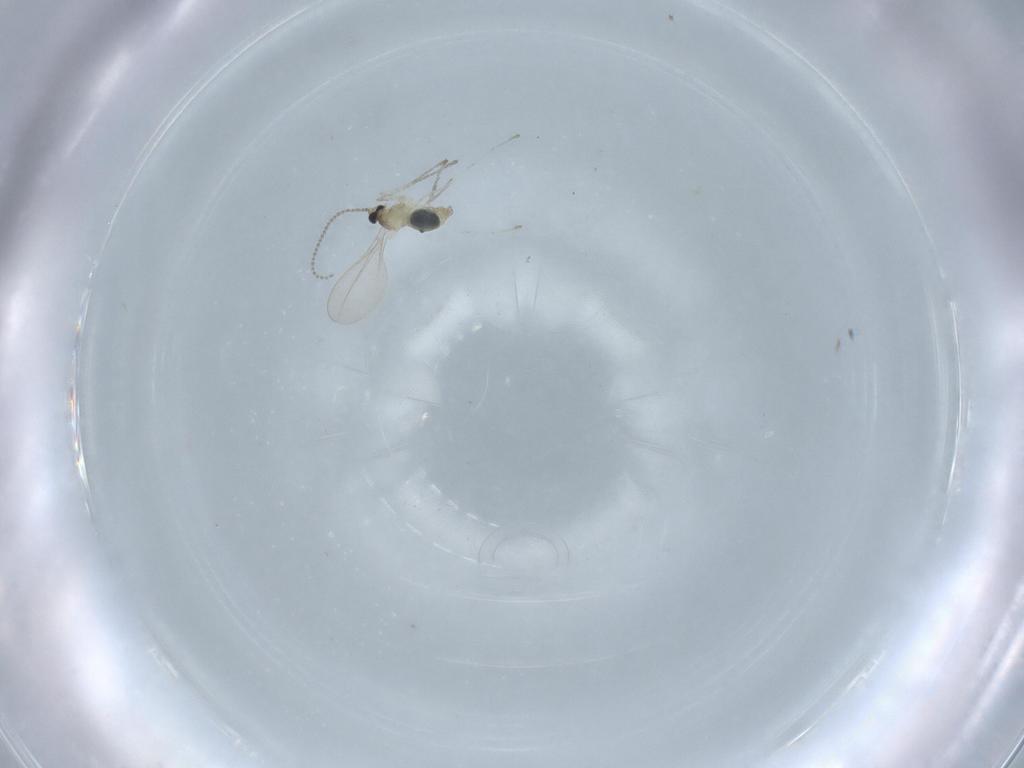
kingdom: Animalia
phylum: Arthropoda
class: Insecta
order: Diptera
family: Chironomidae
